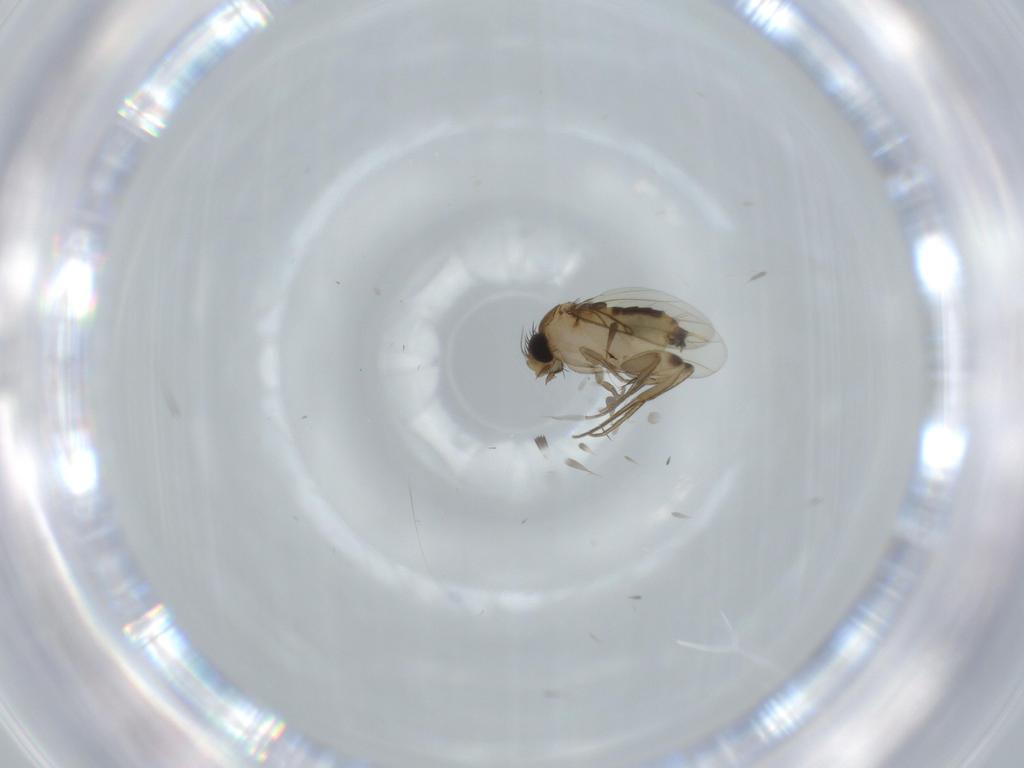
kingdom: Animalia
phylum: Arthropoda
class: Insecta
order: Diptera
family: Phoridae
